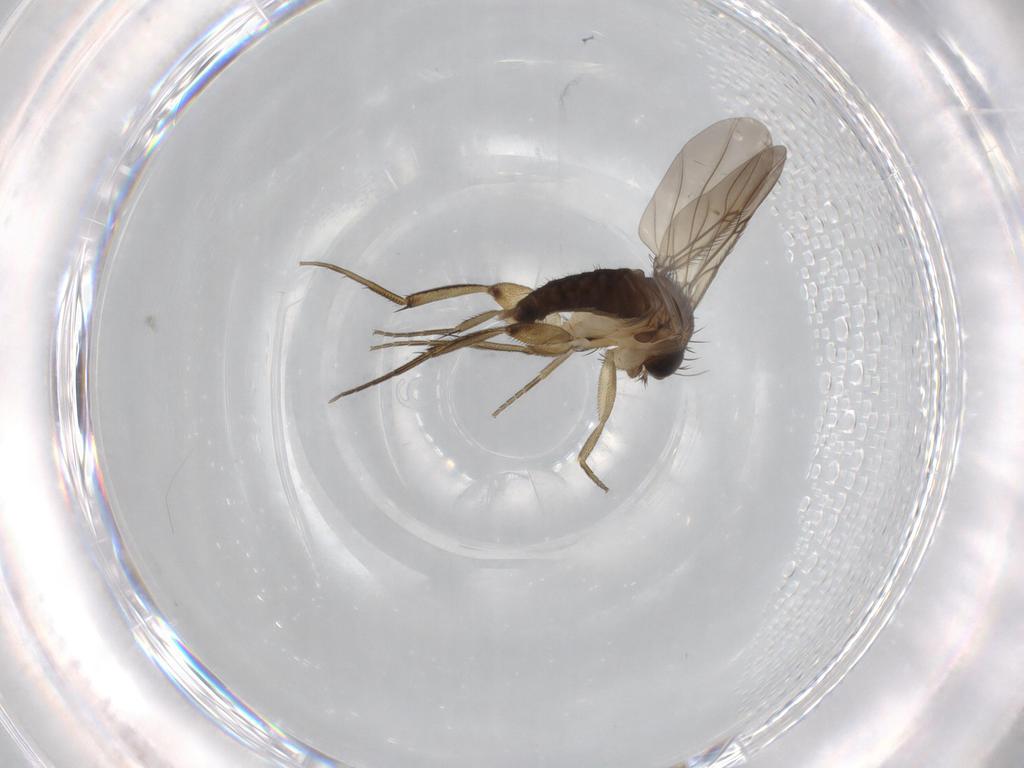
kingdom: Animalia
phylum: Arthropoda
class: Insecta
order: Diptera
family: Phoridae
